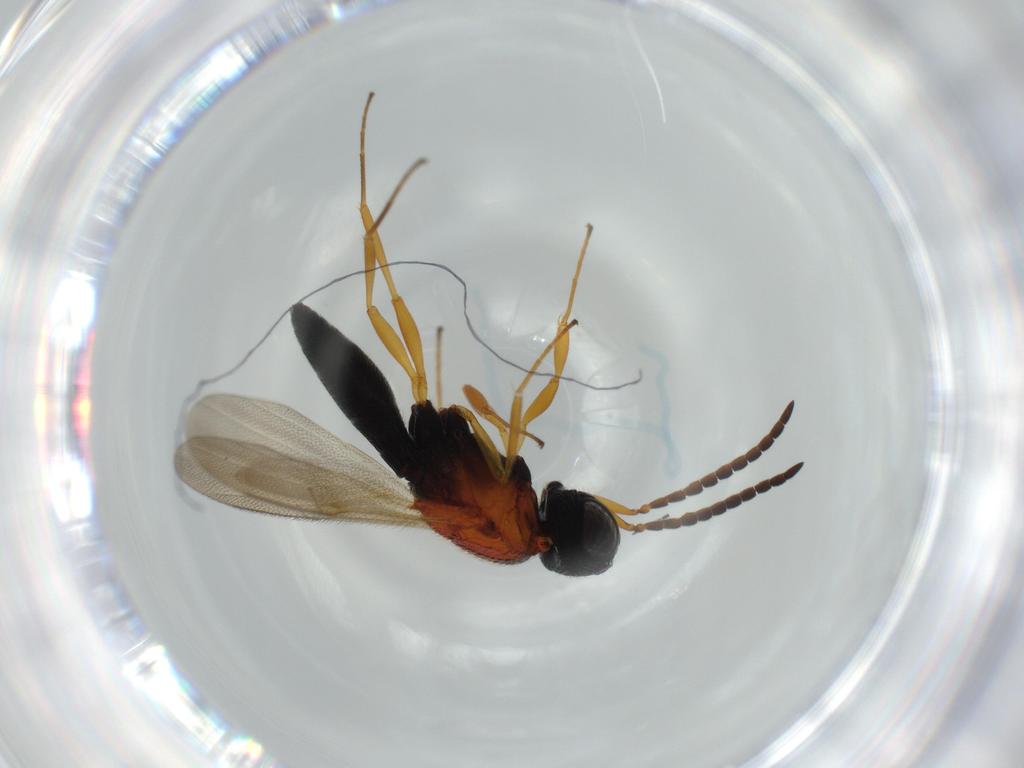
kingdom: Animalia
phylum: Arthropoda
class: Insecta
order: Hymenoptera
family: Scelionidae
